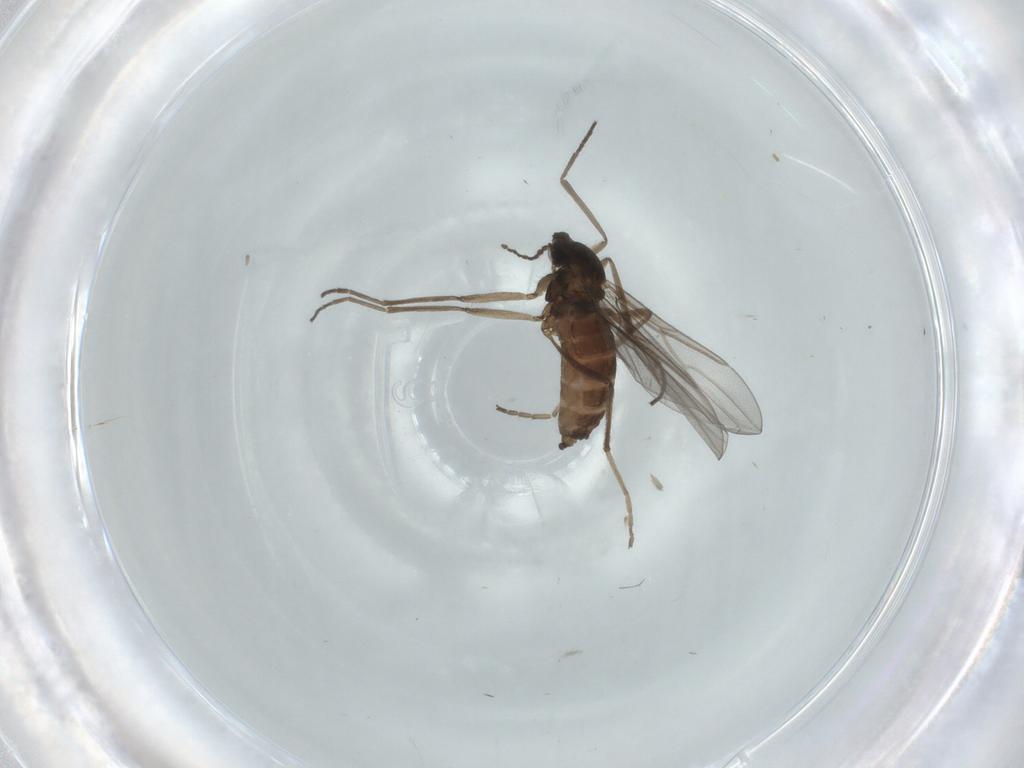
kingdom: Animalia
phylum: Arthropoda
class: Insecta
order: Diptera
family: Cecidomyiidae
